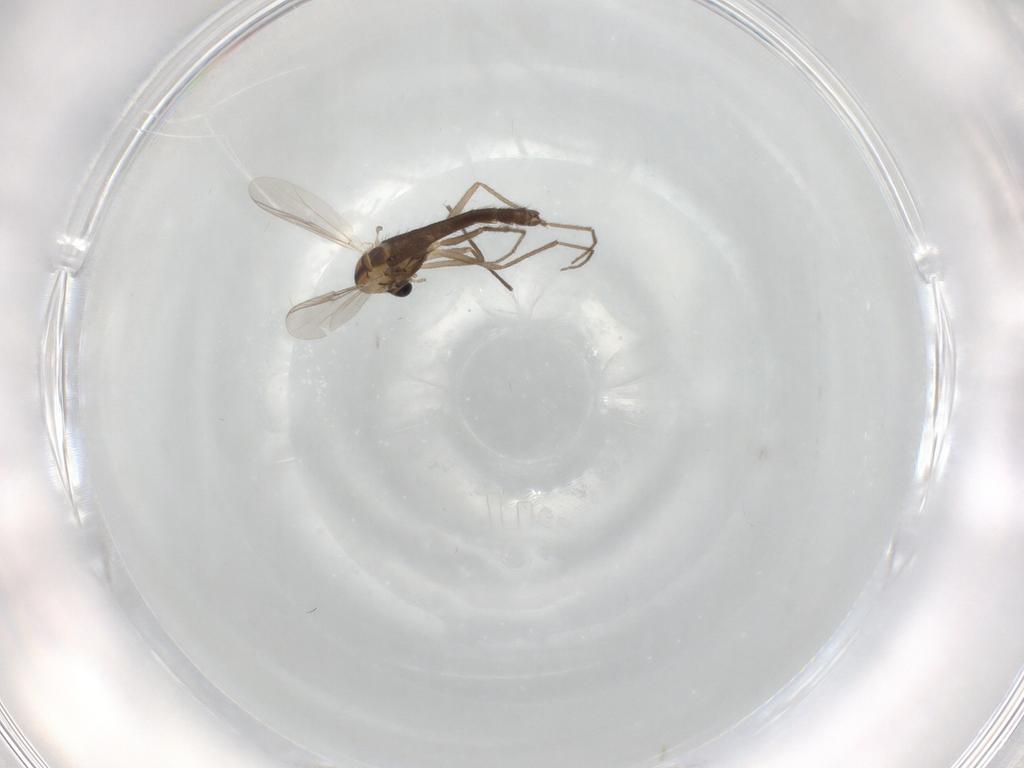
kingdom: Animalia
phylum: Arthropoda
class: Insecta
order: Diptera
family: Chironomidae
